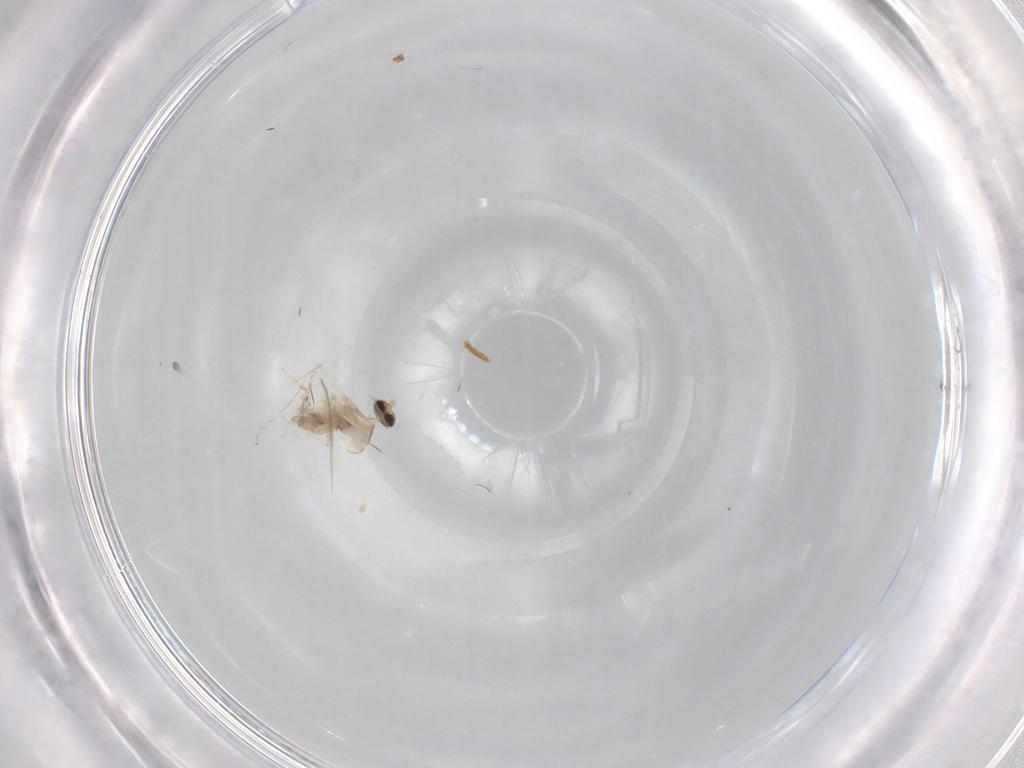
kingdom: Animalia
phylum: Arthropoda
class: Insecta
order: Diptera
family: Cecidomyiidae
